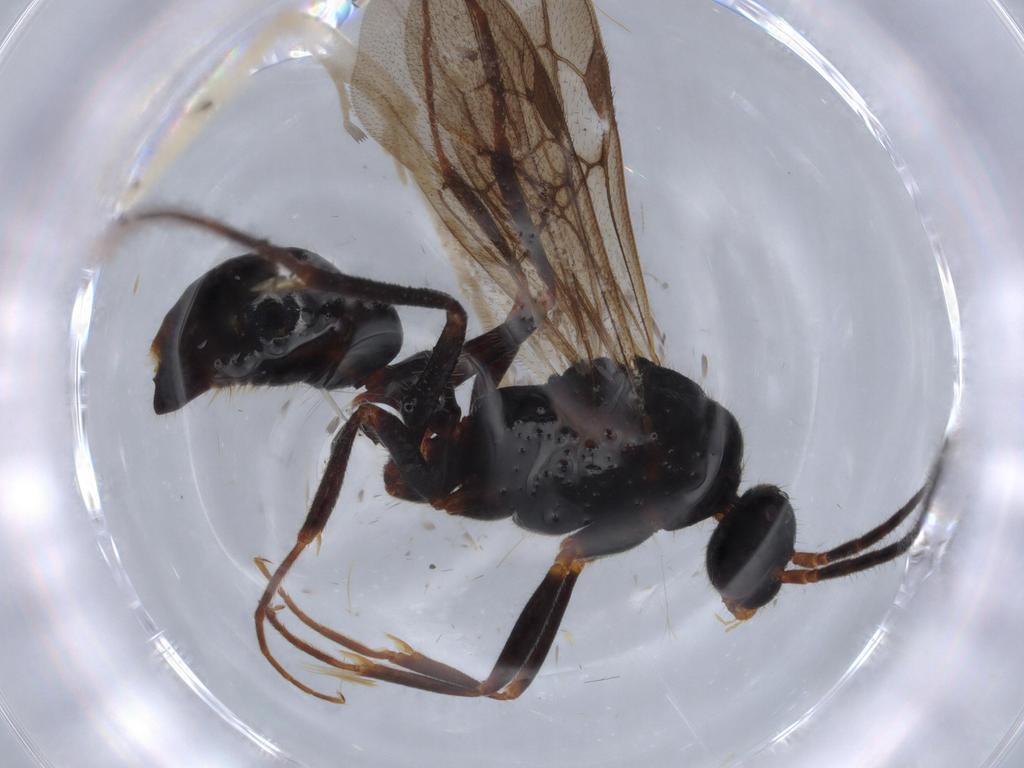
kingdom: Animalia
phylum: Arthropoda
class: Insecta
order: Hymenoptera
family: Formicidae
